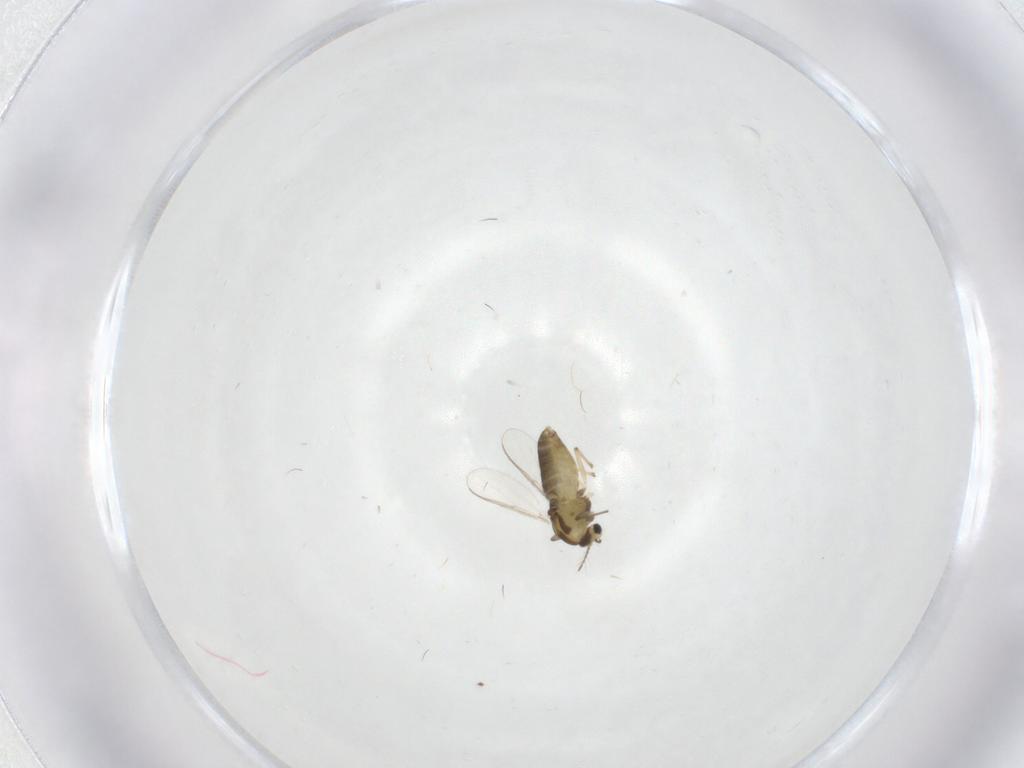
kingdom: Animalia
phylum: Arthropoda
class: Insecta
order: Diptera
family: Chironomidae
